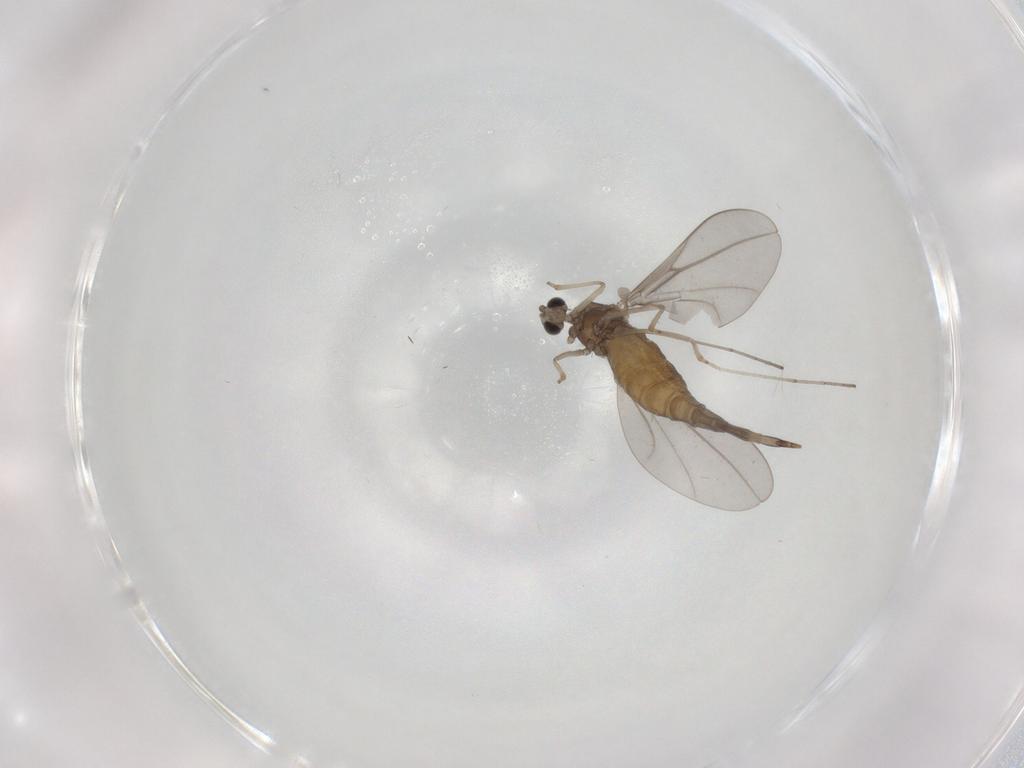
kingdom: Animalia
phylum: Arthropoda
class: Insecta
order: Diptera
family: Cecidomyiidae
